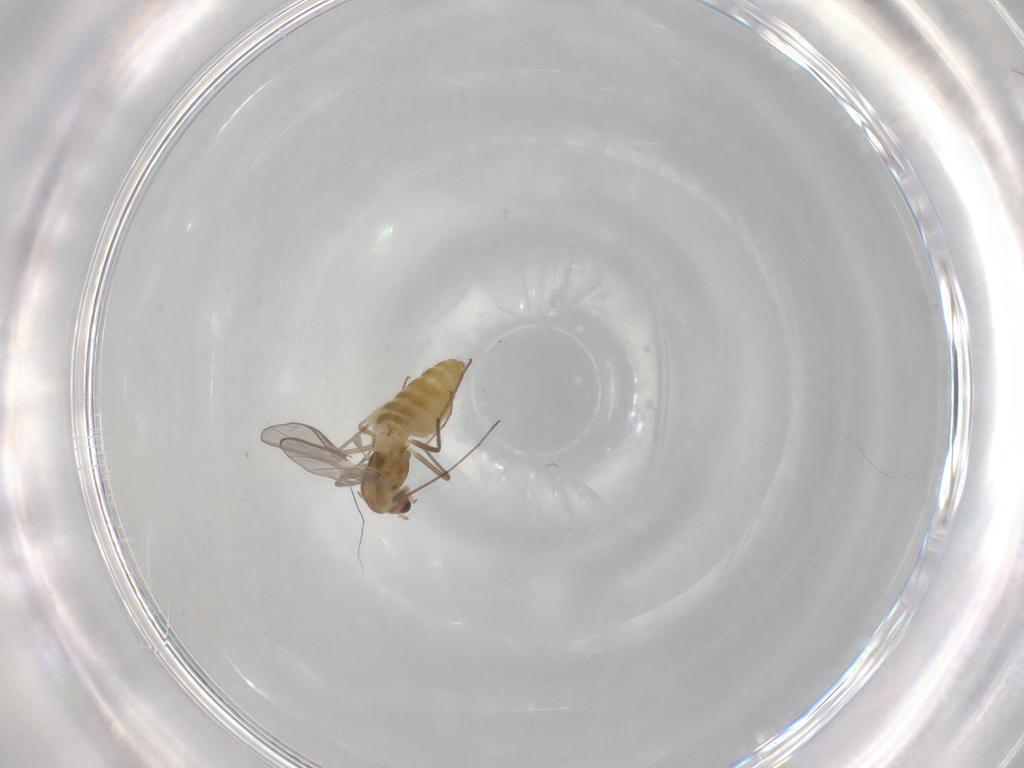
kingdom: Animalia
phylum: Arthropoda
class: Insecta
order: Diptera
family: Chironomidae
